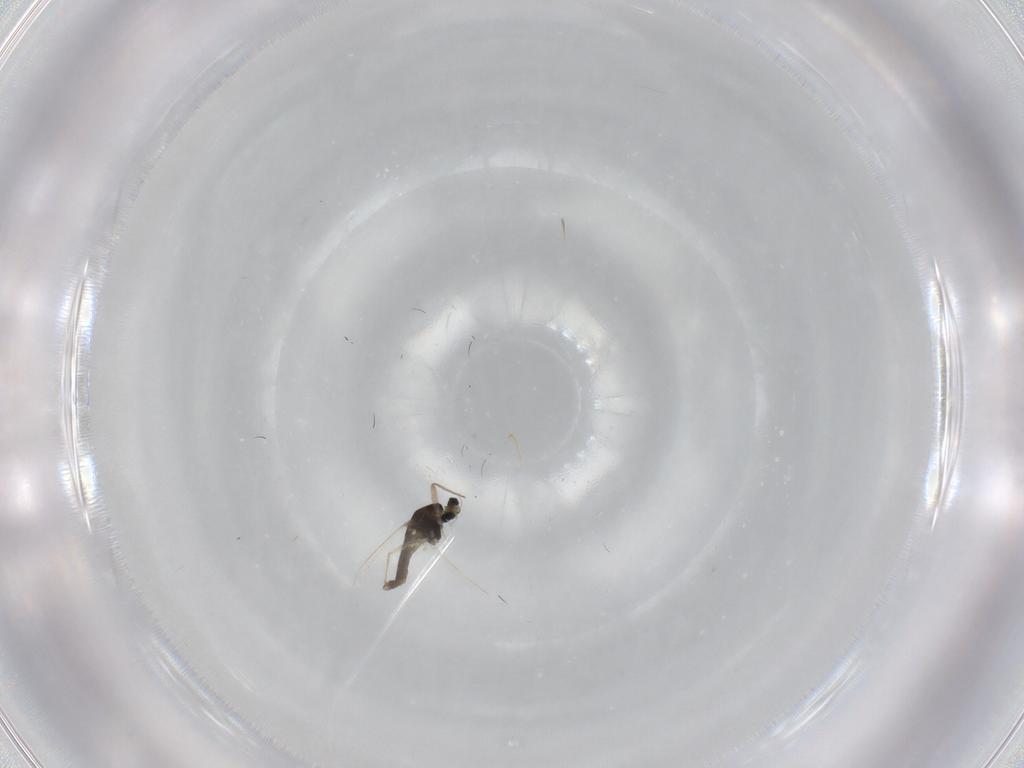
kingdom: Animalia
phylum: Arthropoda
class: Insecta
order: Diptera
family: Chironomidae
